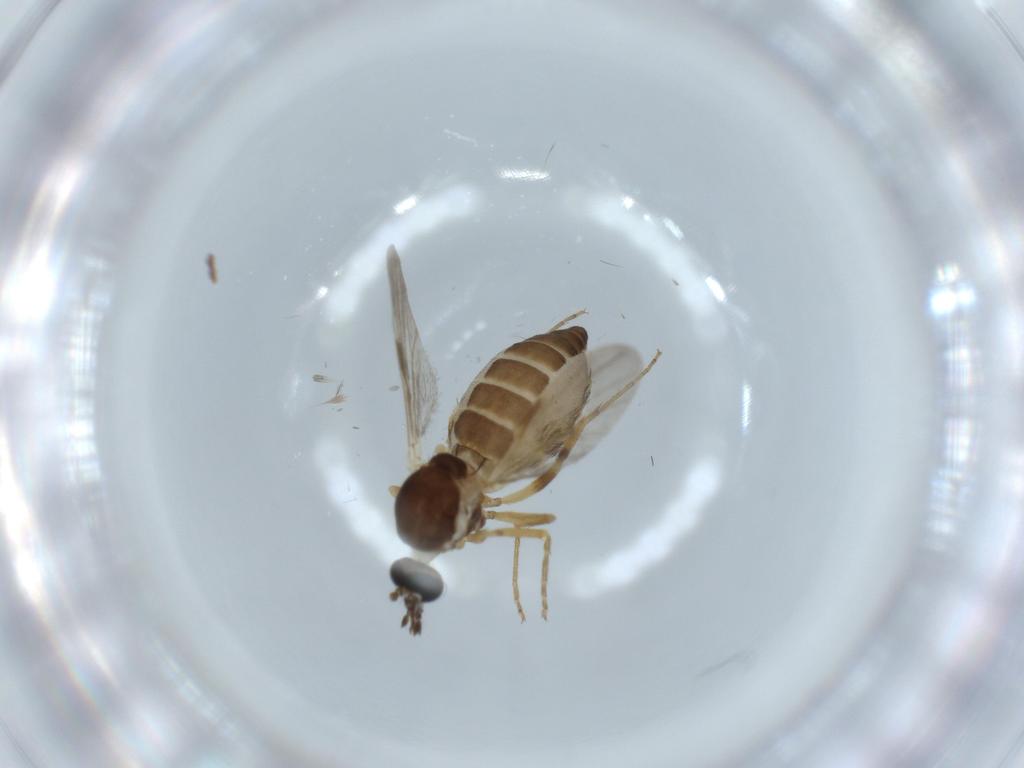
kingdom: Animalia
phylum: Arthropoda
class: Insecta
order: Diptera
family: Ceratopogonidae
